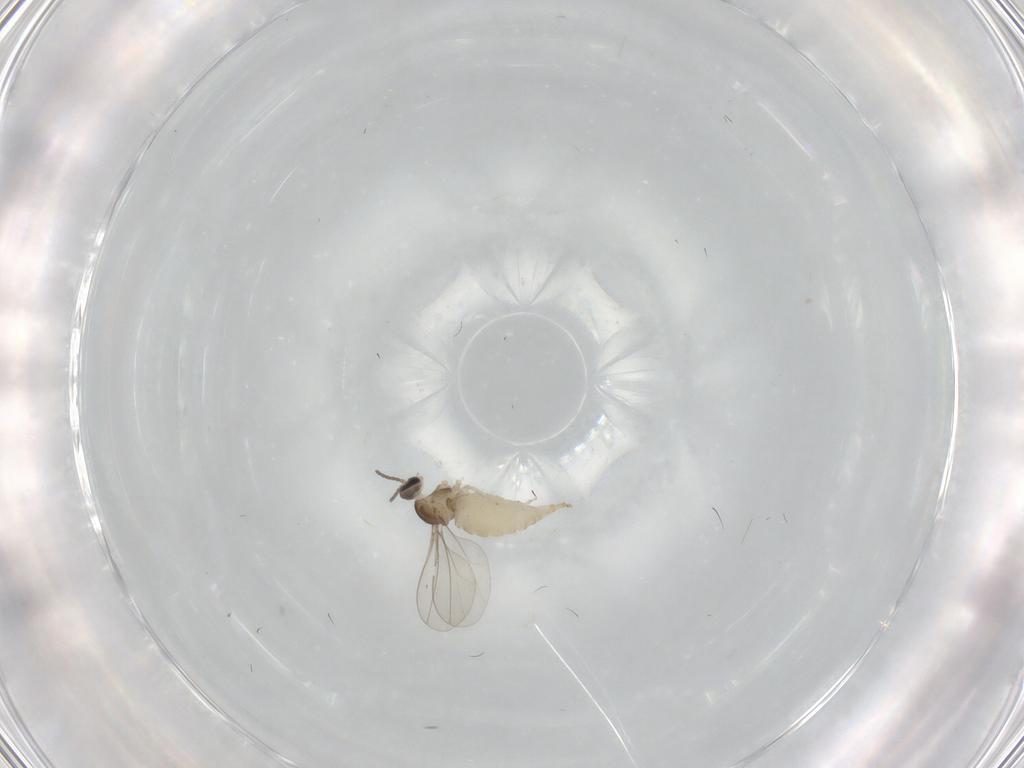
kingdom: Animalia
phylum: Arthropoda
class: Insecta
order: Diptera
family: Cecidomyiidae
